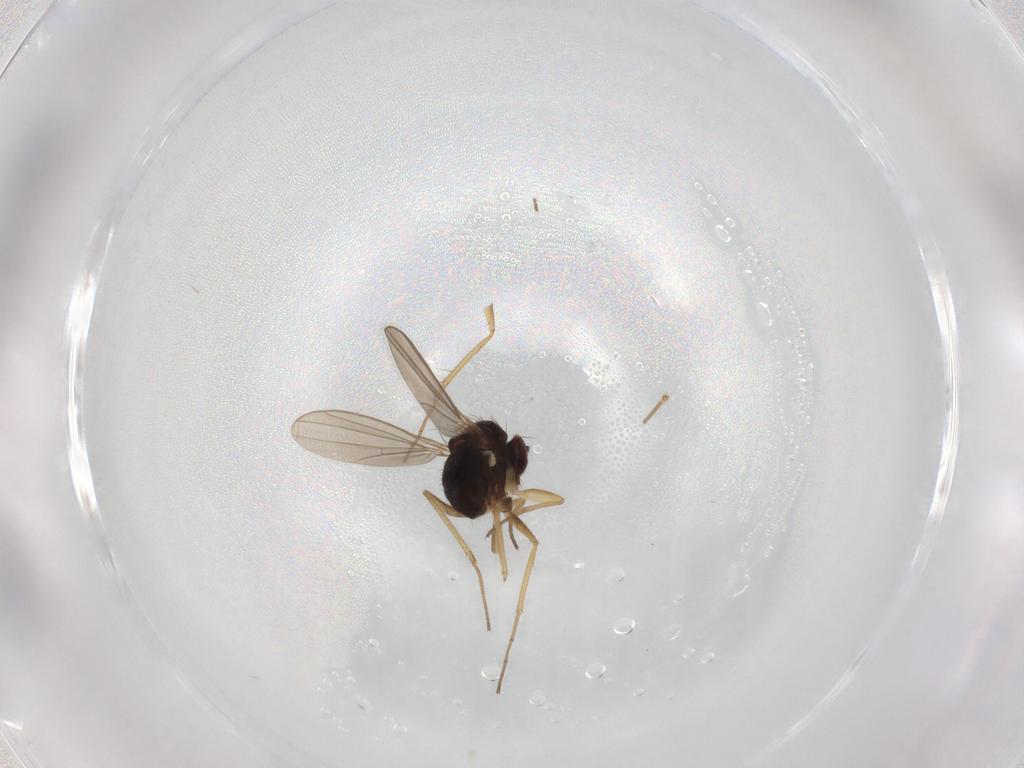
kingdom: Animalia
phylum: Arthropoda
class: Insecta
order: Diptera
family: Dolichopodidae
